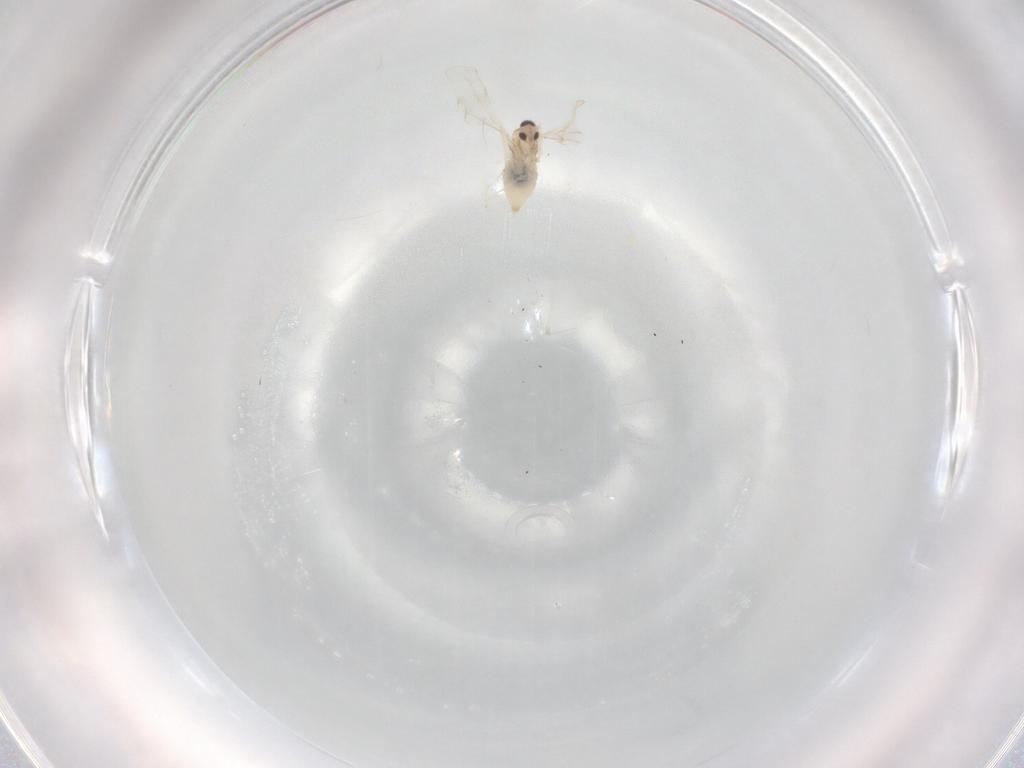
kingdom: Animalia
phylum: Arthropoda
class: Insecta
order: Diptera
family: Cecidomyiidae
